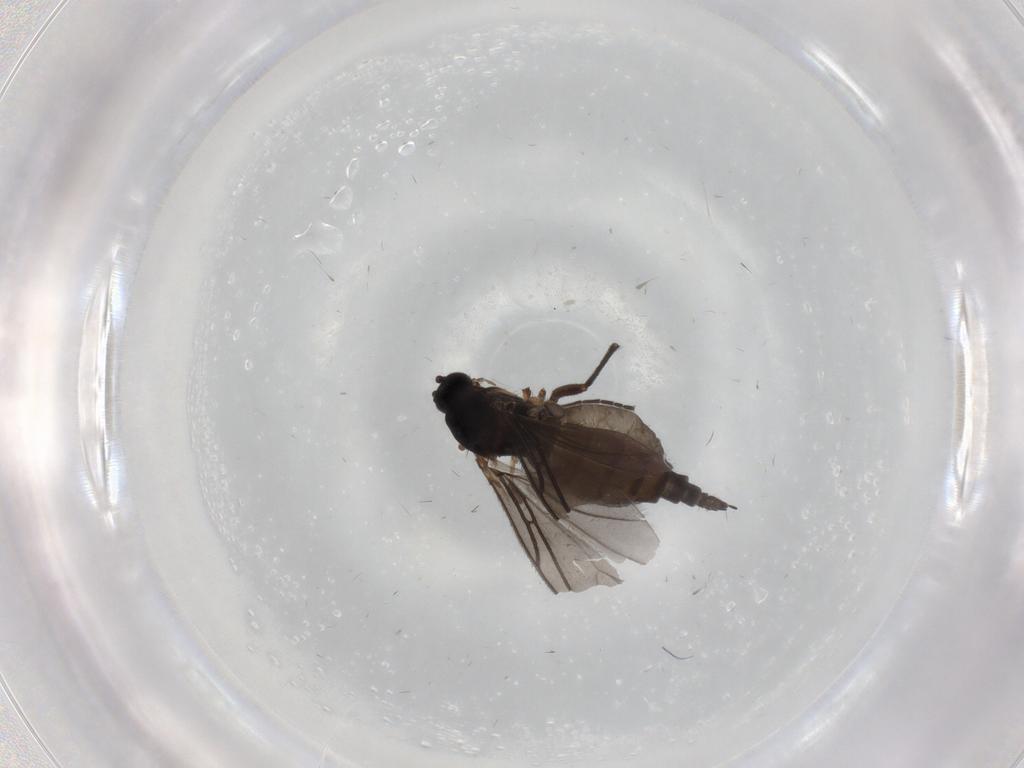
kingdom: Animalia
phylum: Arthropoda
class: Insecta
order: Diptera
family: Sciaridae
